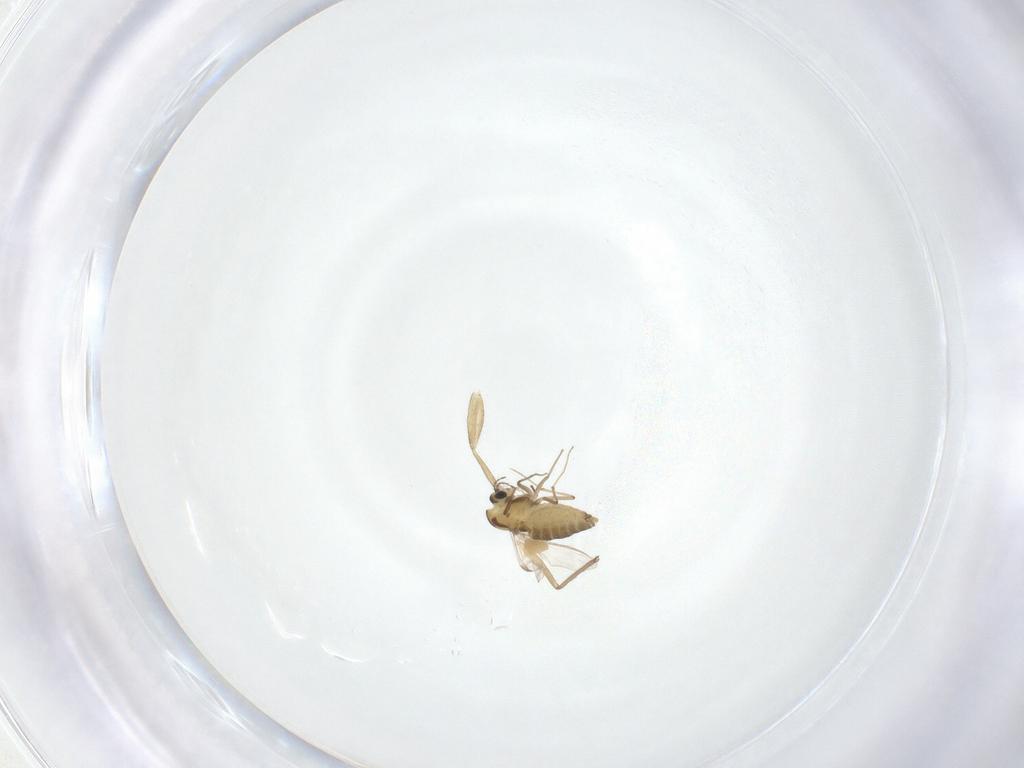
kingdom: Animalia
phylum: Arthropoda
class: Insecta
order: Diptera
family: Chironomidae
